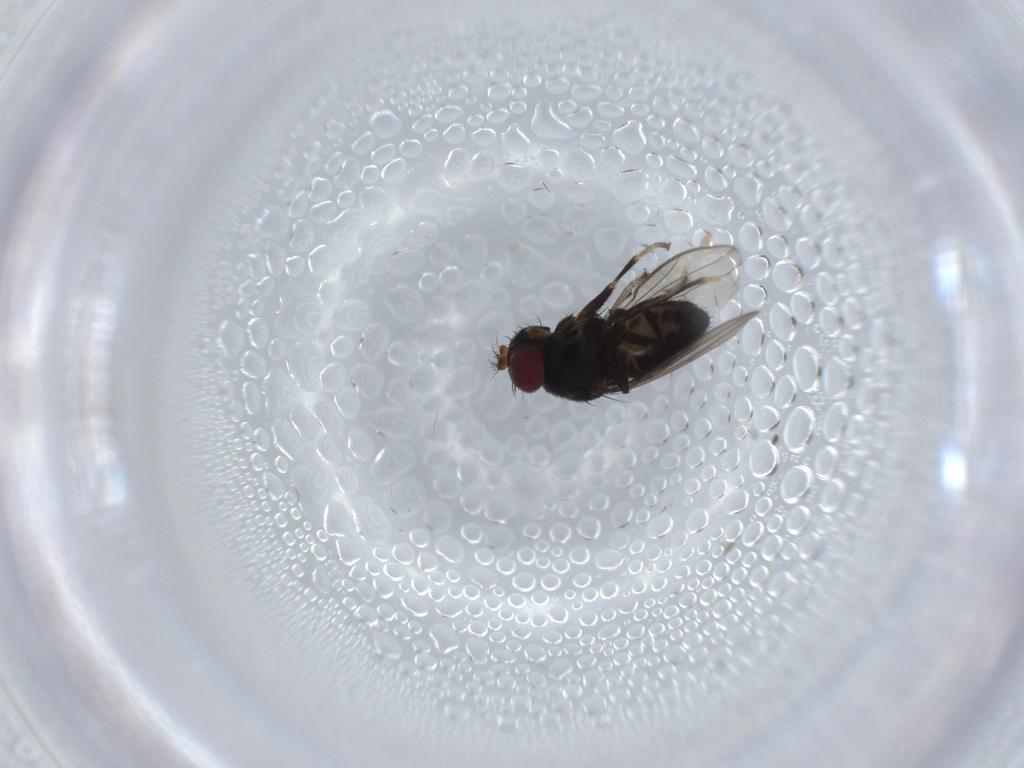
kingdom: Animalia
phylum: Arthropoda
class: Insecta
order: Diptera
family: Ephydridae
